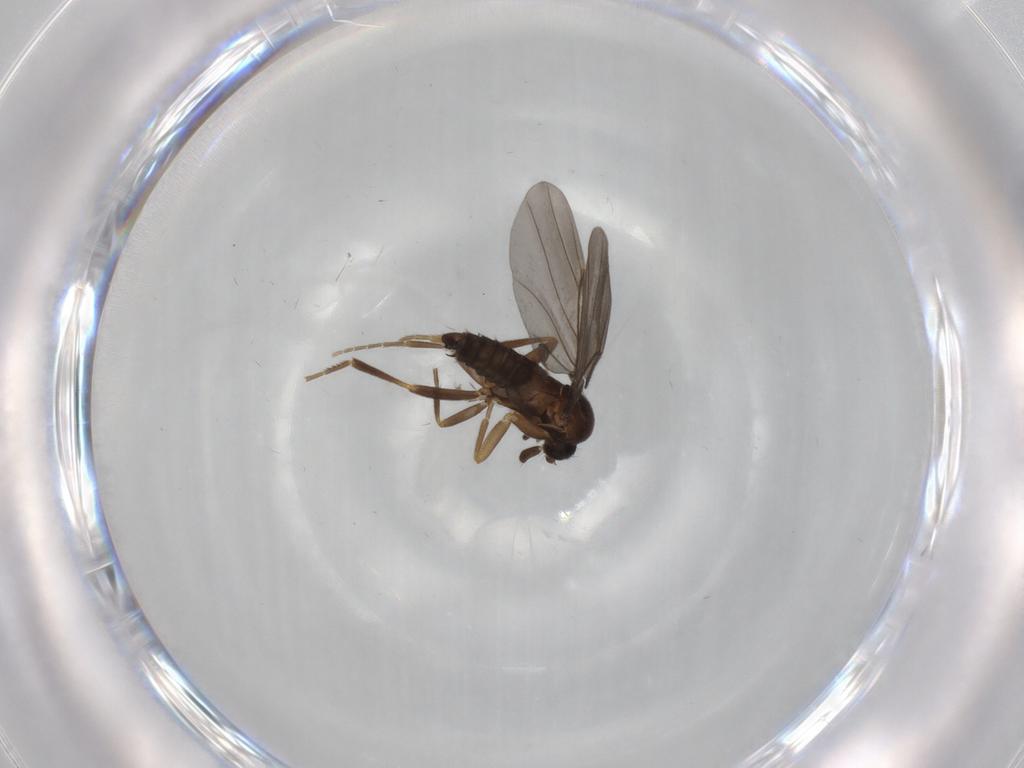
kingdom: Animalia
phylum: Arthropoda
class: Insecta
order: Diptera
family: Phoridae
